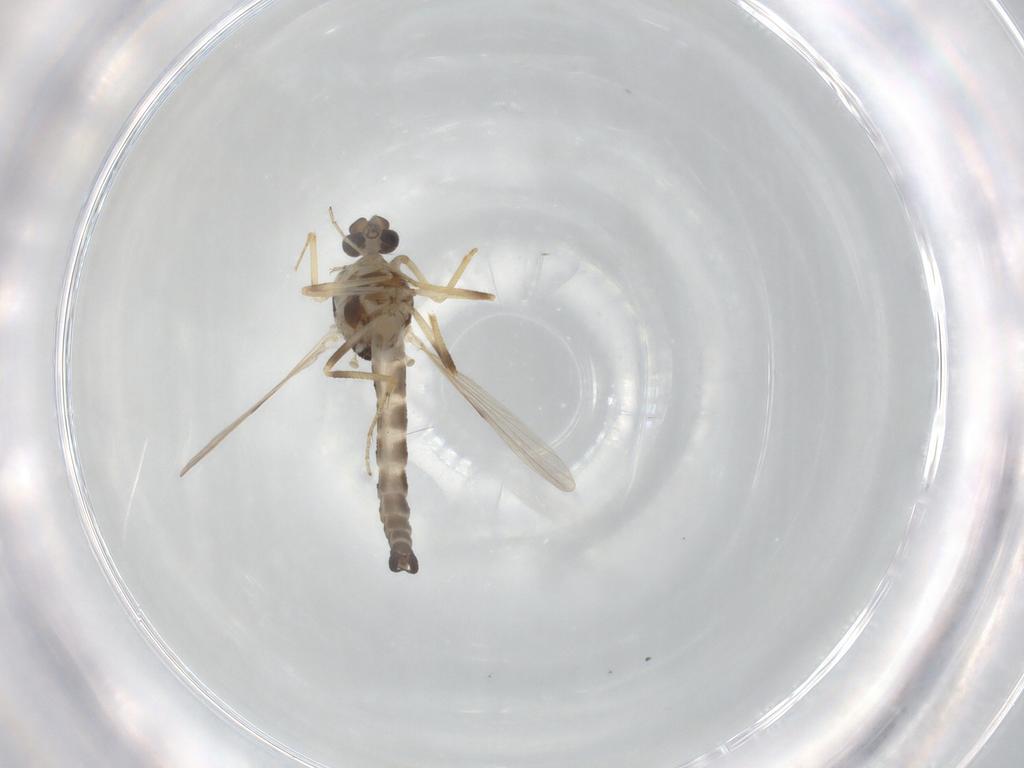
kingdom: Animalia
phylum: Arthropoda
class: Insecta
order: Diptera
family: Ceratopogonidae
